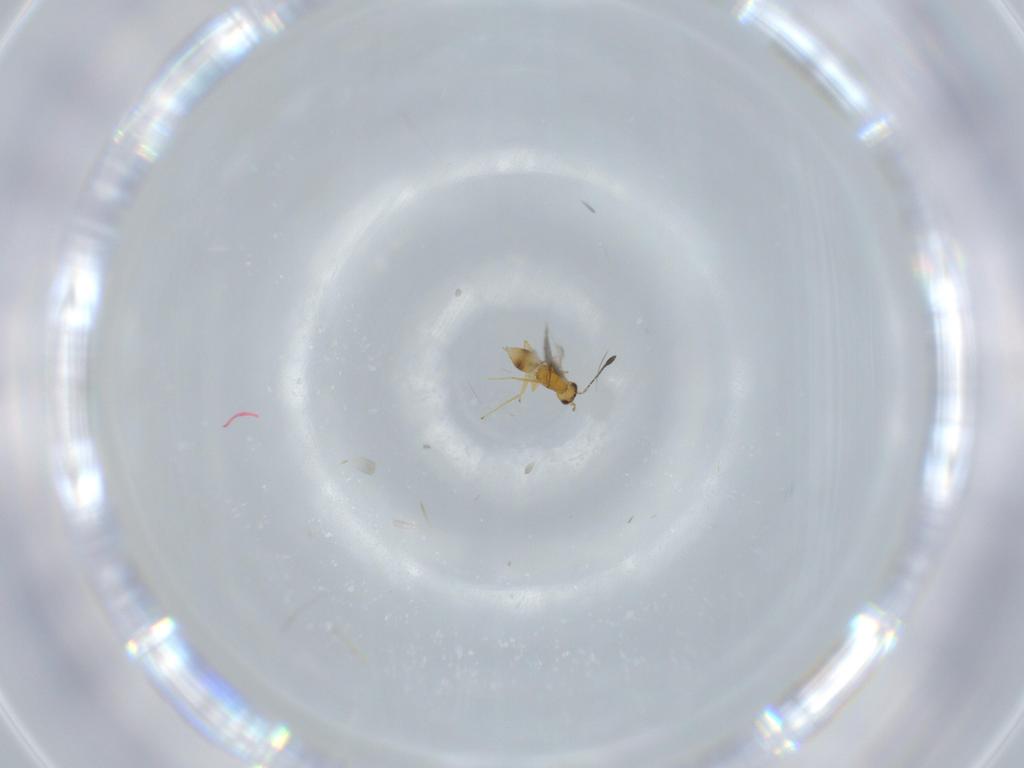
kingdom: Animalia
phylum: Arthropoda
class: Insecta
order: Hymenoptera
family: Mymaridae
